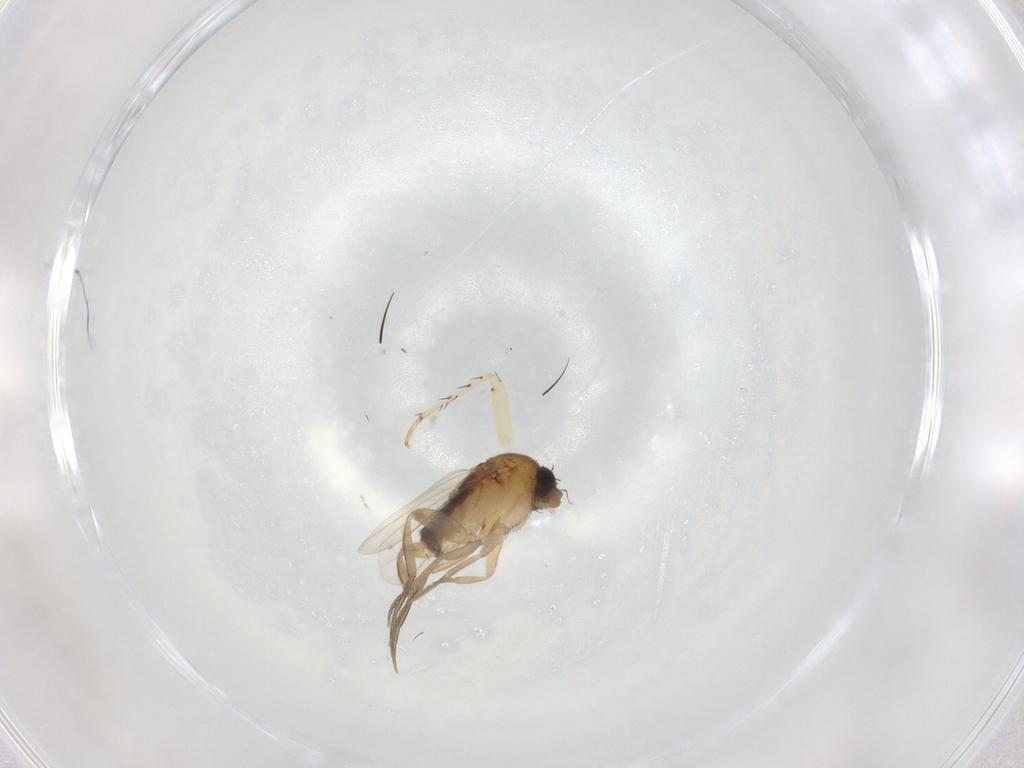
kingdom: Animalia
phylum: Arthropoda
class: Insecta
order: Diptera
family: Phoridae
